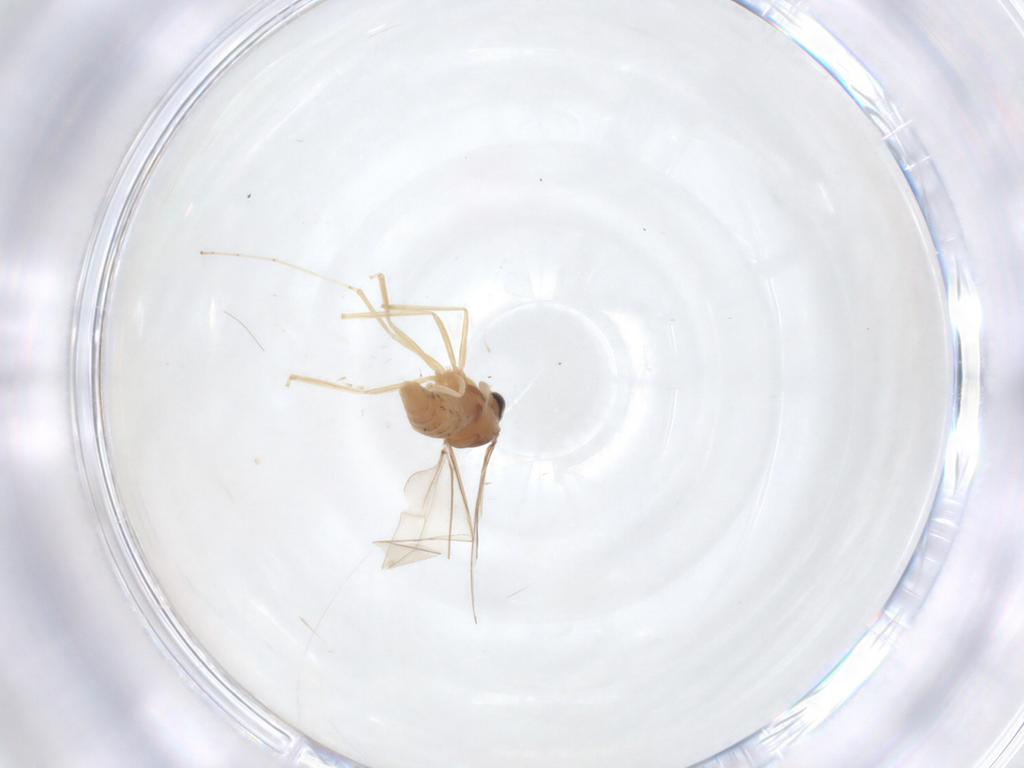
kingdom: Animalia
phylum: Arthropoda
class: Insecta
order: Diptera
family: Cecidomyiidae
